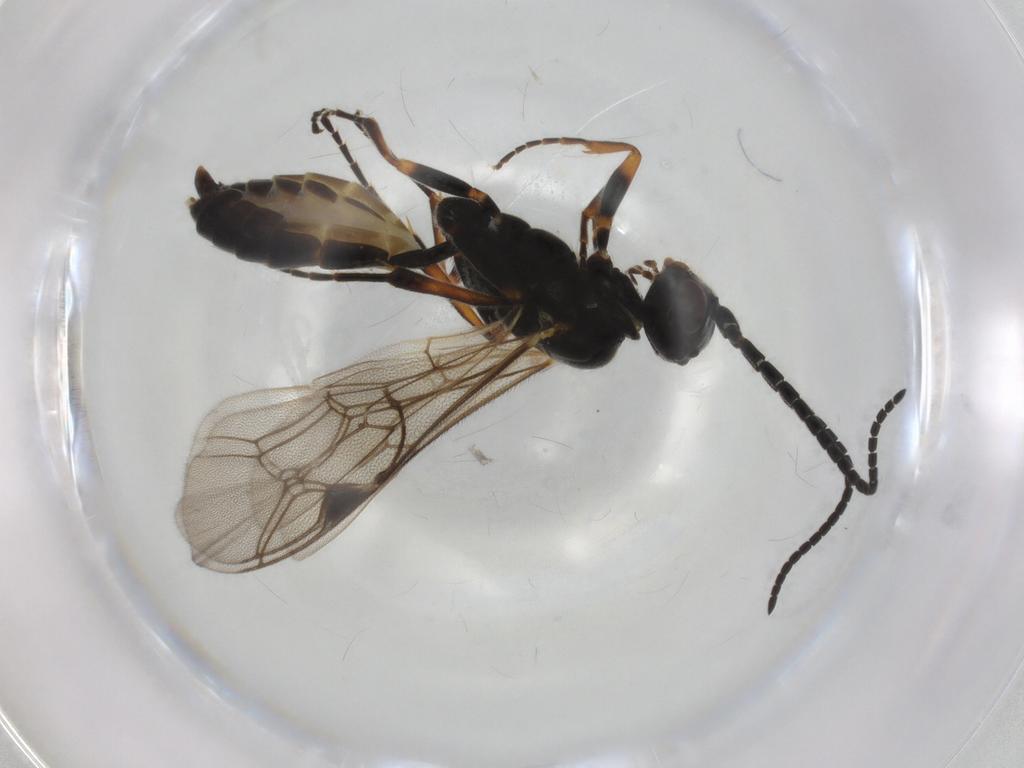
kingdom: Animalia
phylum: Arthropoda
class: Insecta
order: Hymenoptera
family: Ichneumonidae
